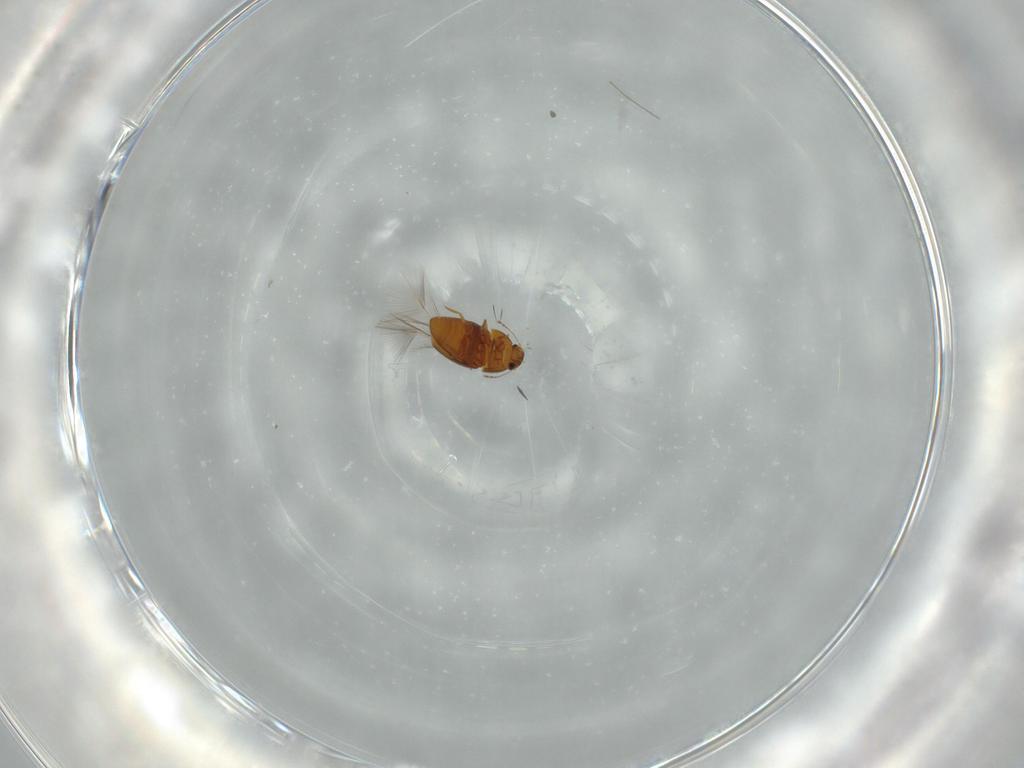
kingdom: Animalia
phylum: Arthropoda
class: Insecta
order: Coleoptera
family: Ptiliidae
